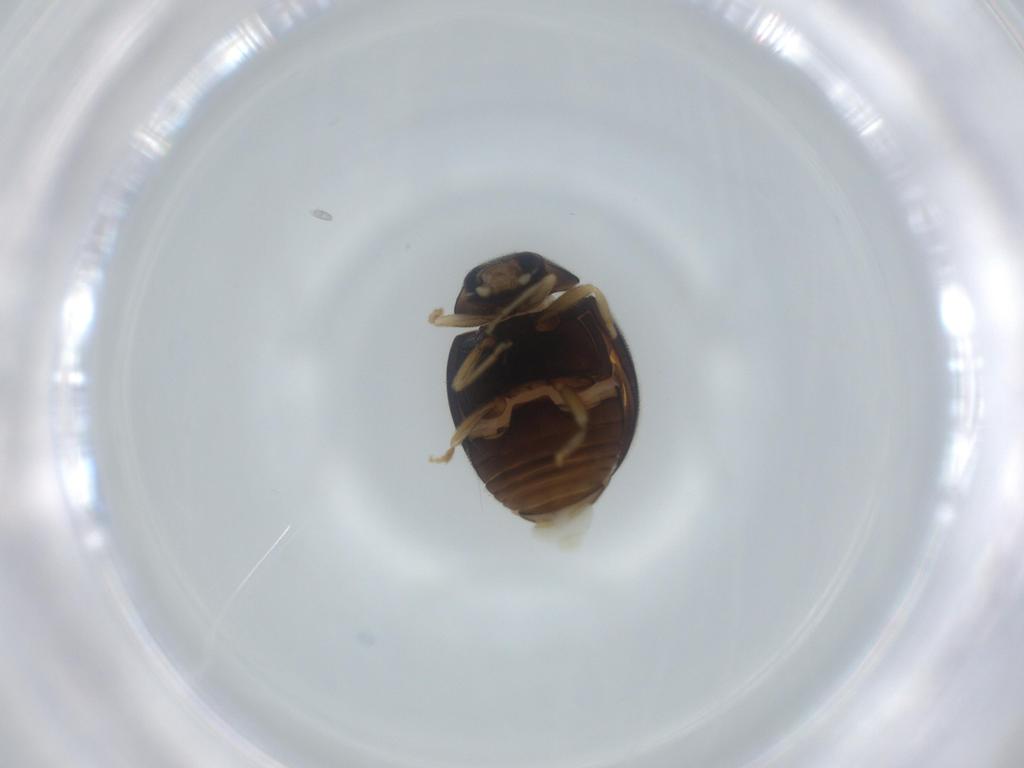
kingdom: Animalia
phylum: Arthropoda
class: Insecta
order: Coleoptera
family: Coccinellidae
